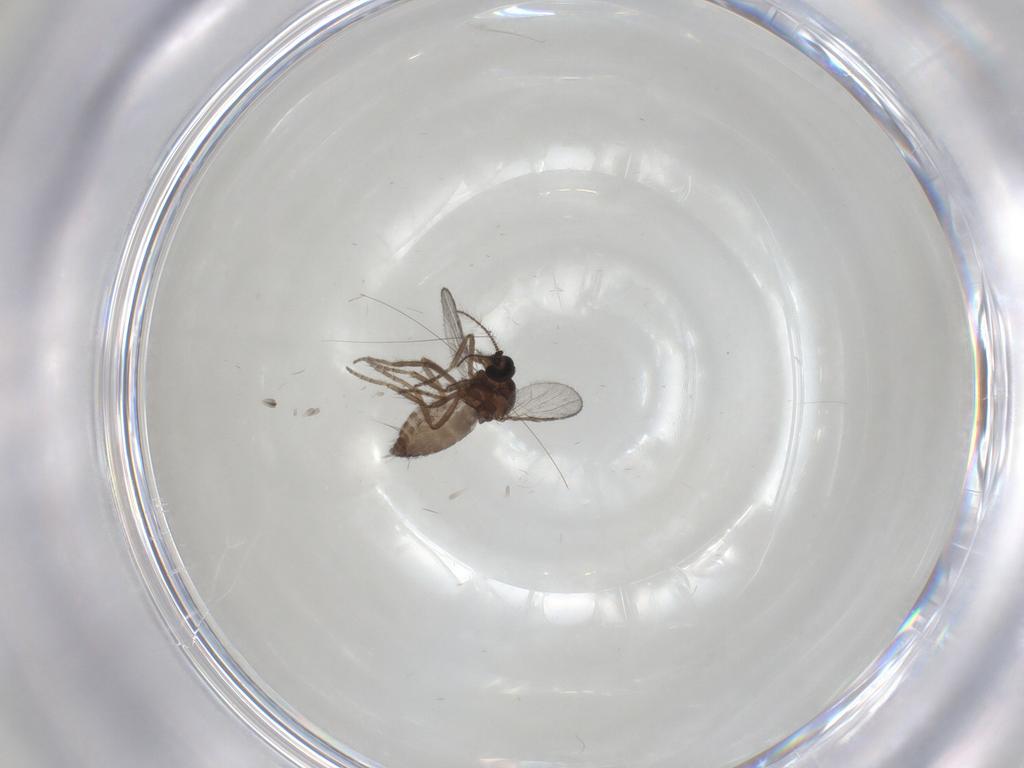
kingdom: Animalia
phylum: Arthropoda
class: Insecta
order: Diptera
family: Ceratopogonidae
